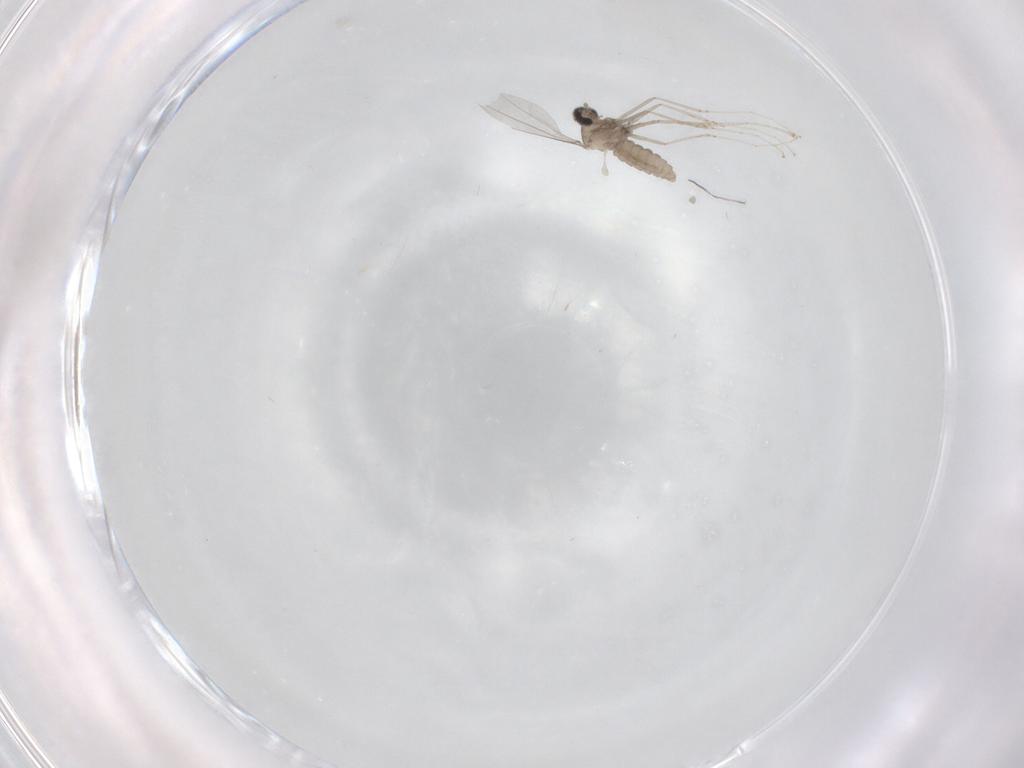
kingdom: Animalia
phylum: Arthropoda
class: Insecta
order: Diptera
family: Cecidomyiidae
